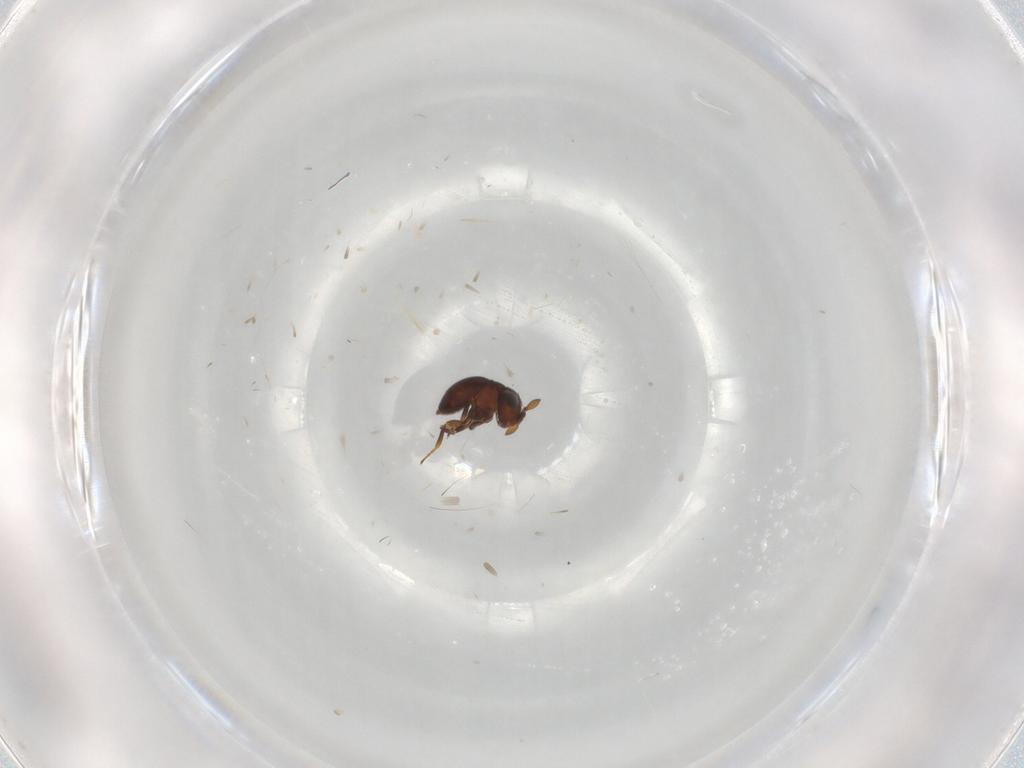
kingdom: Animalia
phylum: Arthropoda
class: Insecta
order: Hymenoptera
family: Scelionidae
